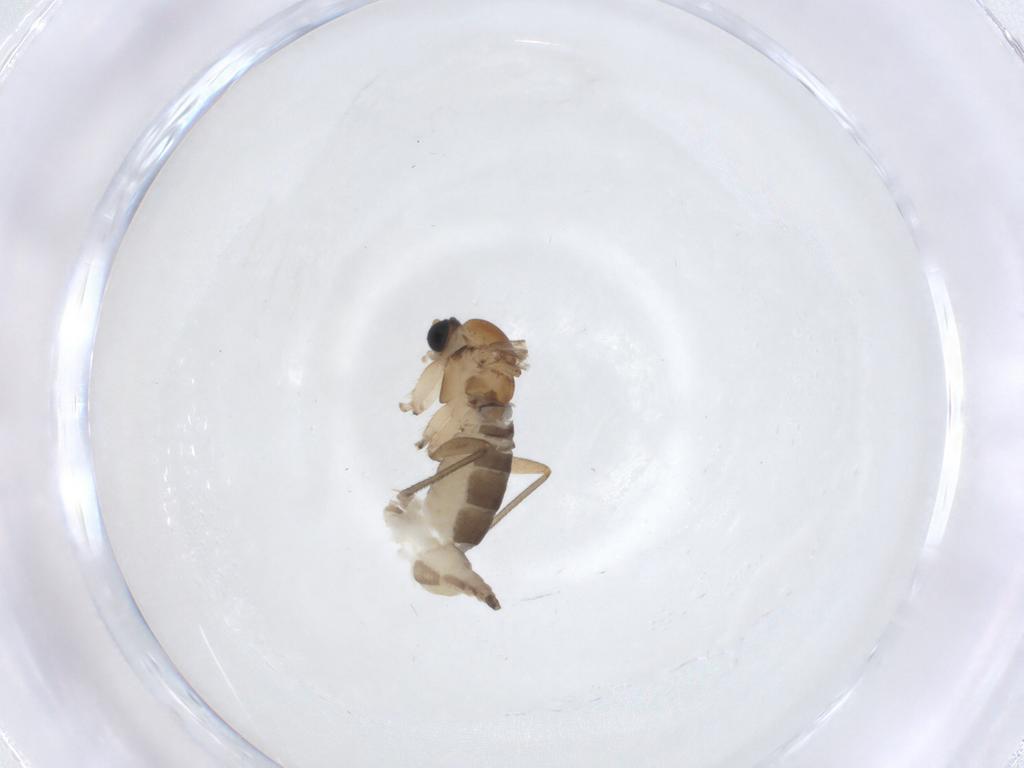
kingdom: Animalia
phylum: Arthropoda
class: Insecta
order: Diptera
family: Sciaridae
